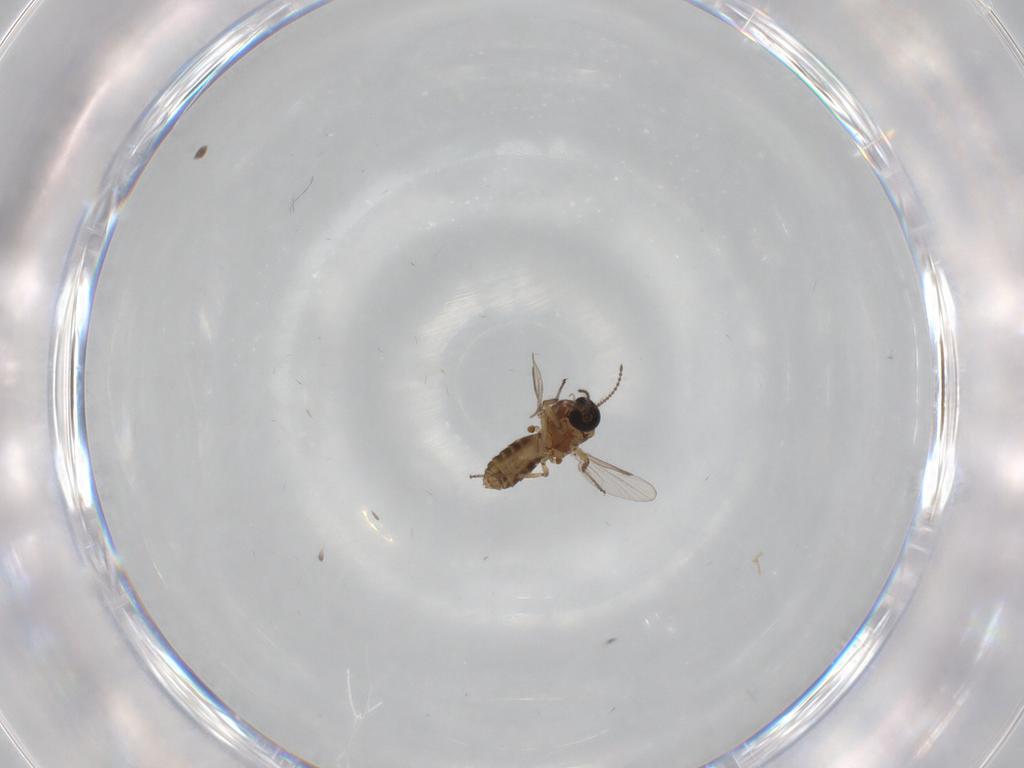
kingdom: Animalia
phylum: Arthropoda
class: Insecta
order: Diptera
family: Ceratopogonidae
